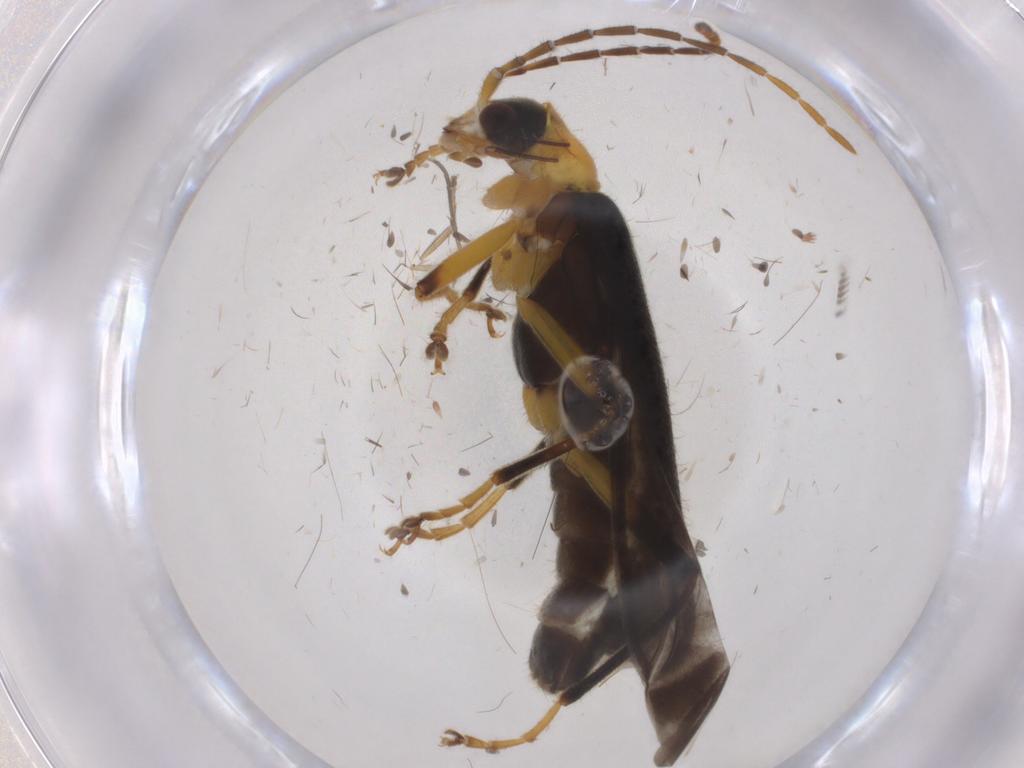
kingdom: Animalia
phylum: Arthropoda
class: Insecta
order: Coleoptera
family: Cantharidae
